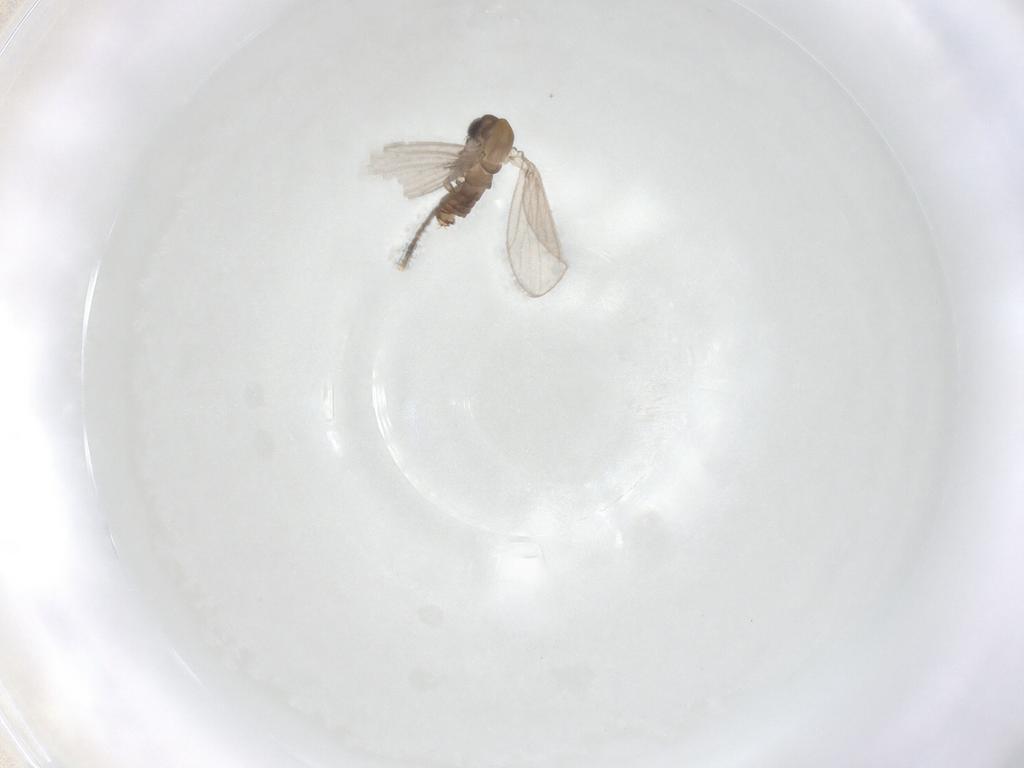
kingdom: Animalia
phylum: Arthropoda
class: Insecta
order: Diptera
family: Psychodidae
